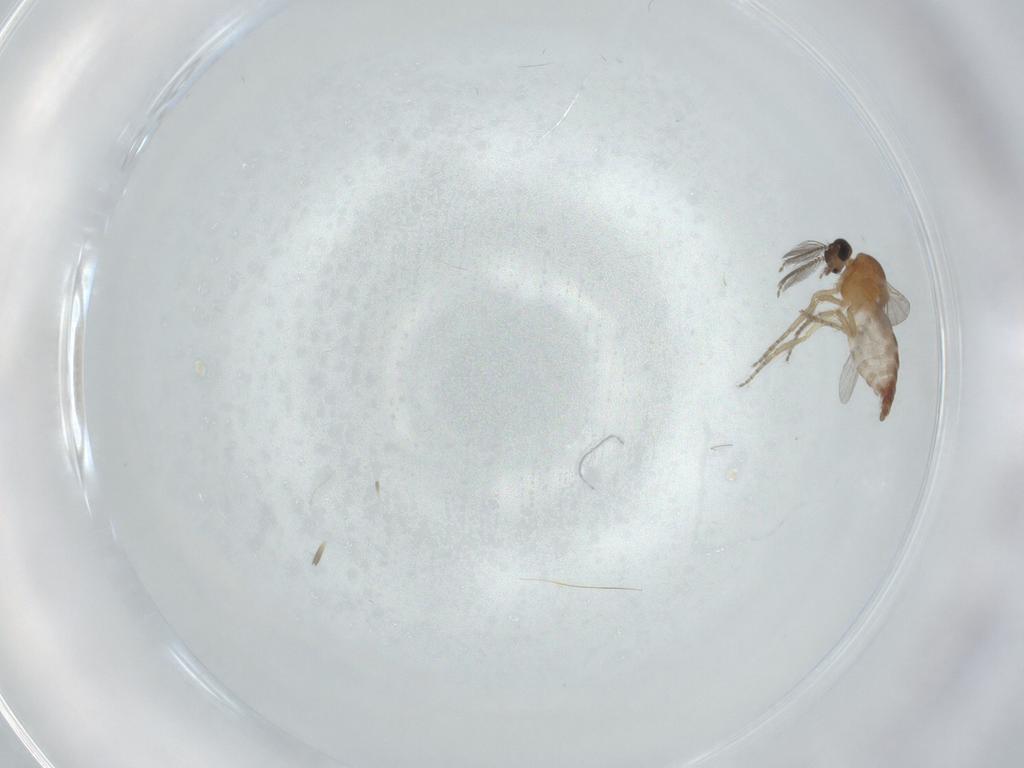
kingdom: Animalia
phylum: Arthropoda
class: Insecta
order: Diptera
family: Ceratopogonidae
